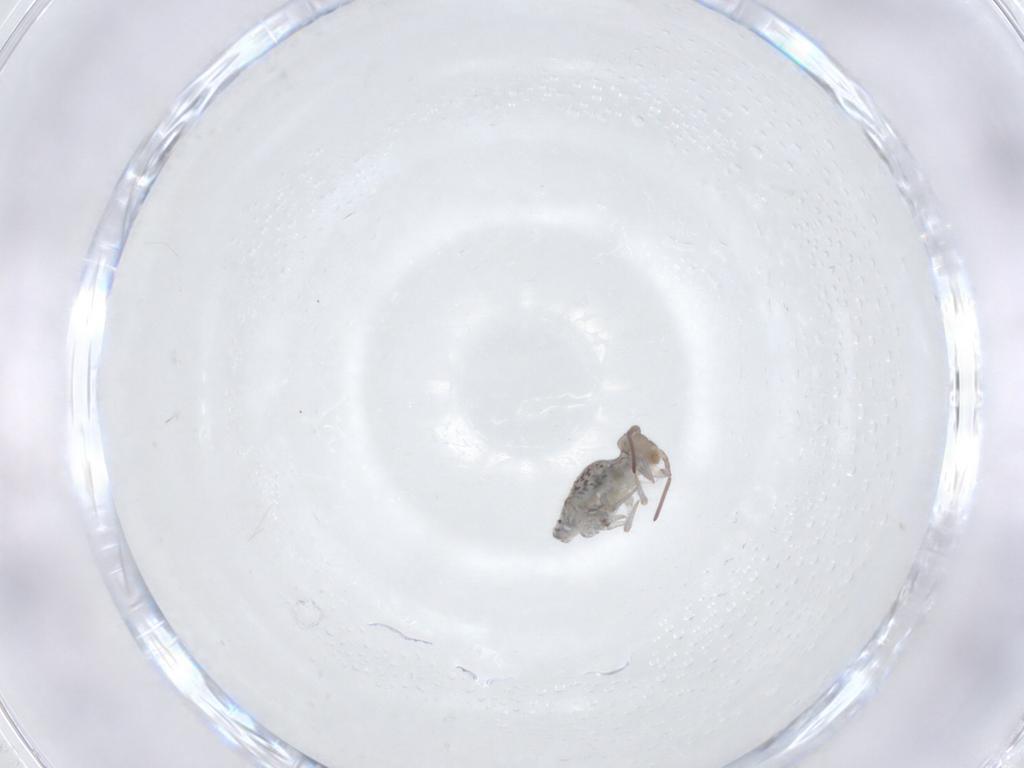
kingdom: Animalia
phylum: Arthropoda
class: Collembola
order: Symphypleona
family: Bourletiellidae
